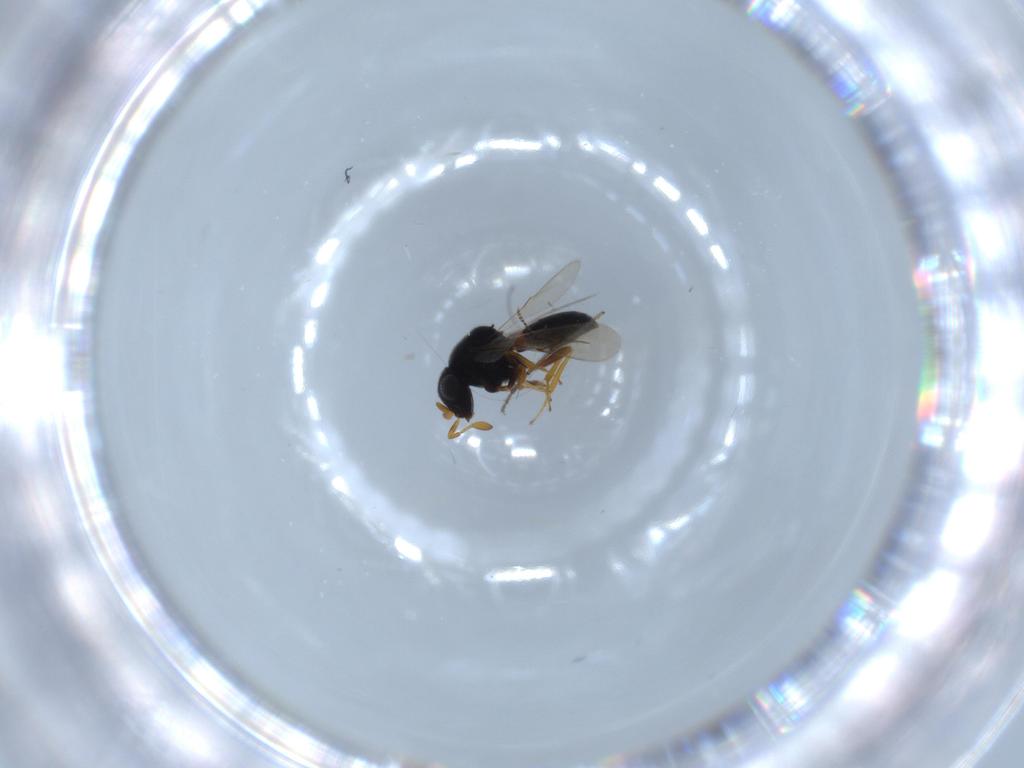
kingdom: Animalia
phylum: Arthropoda
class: Insecta
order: Hymenoptera
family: Scelionidae
